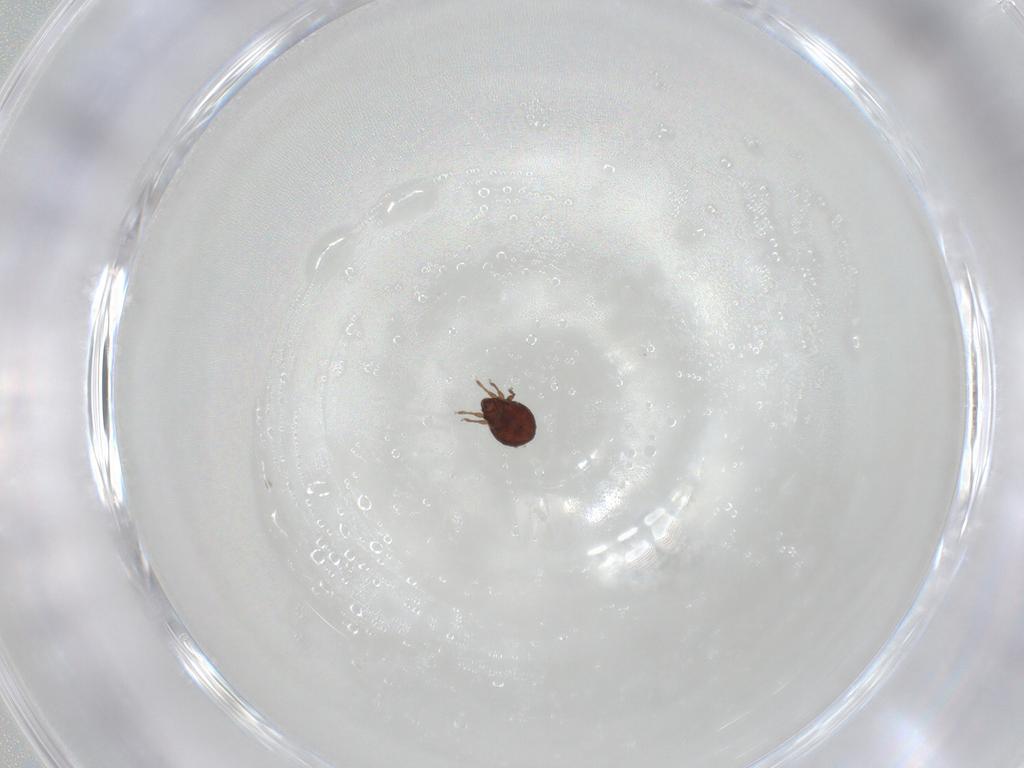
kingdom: Animalia
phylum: Arthropoda
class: Arachnida
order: Sarcoptiformes
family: Scheloribatidae
